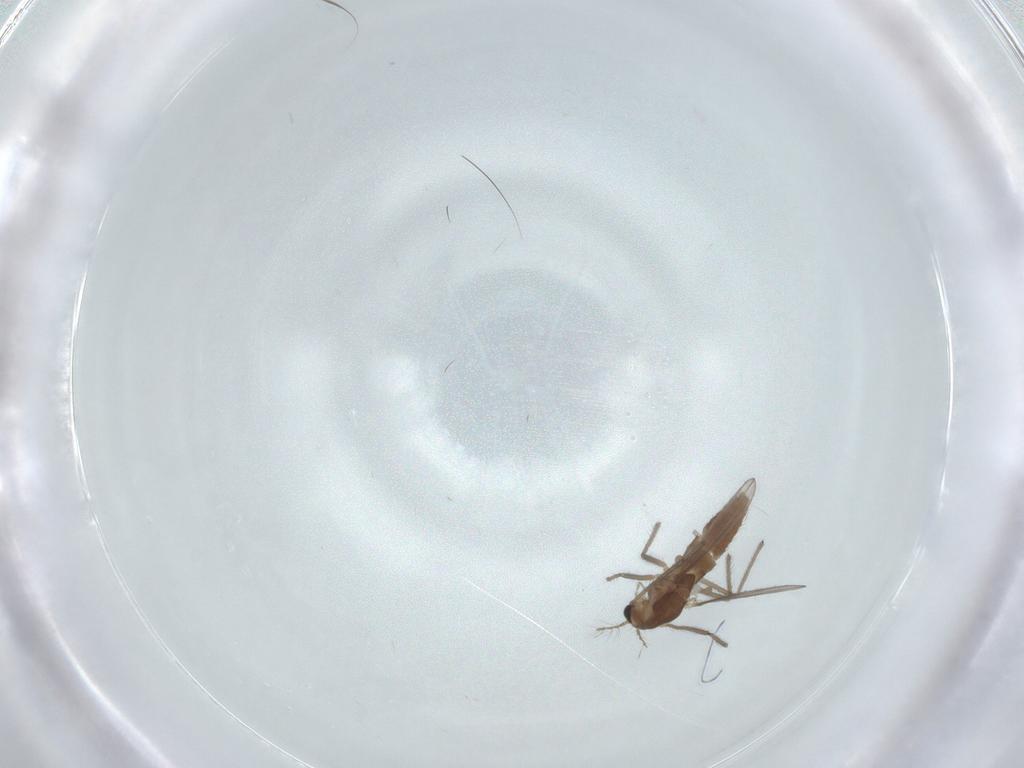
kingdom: Animalia
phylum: Arthropoda
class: Insecta
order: Diptera
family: Chironomidae
